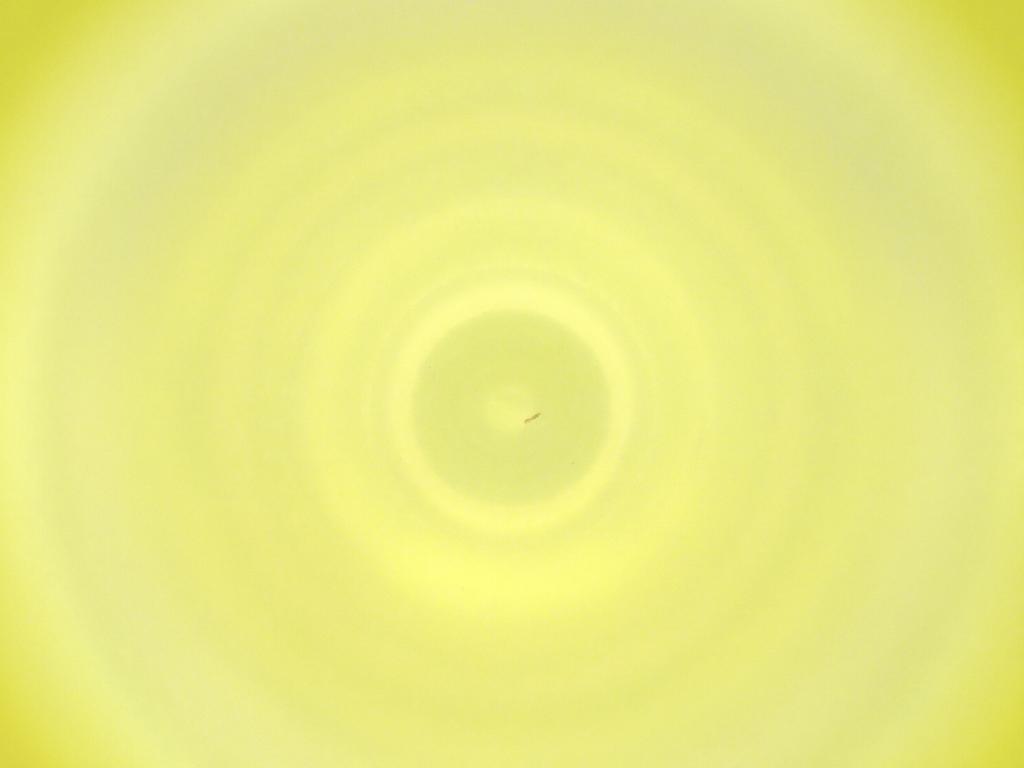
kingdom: Animalia
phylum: Arthropoda
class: Insecta
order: Diptera
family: Cecidomyiidae
